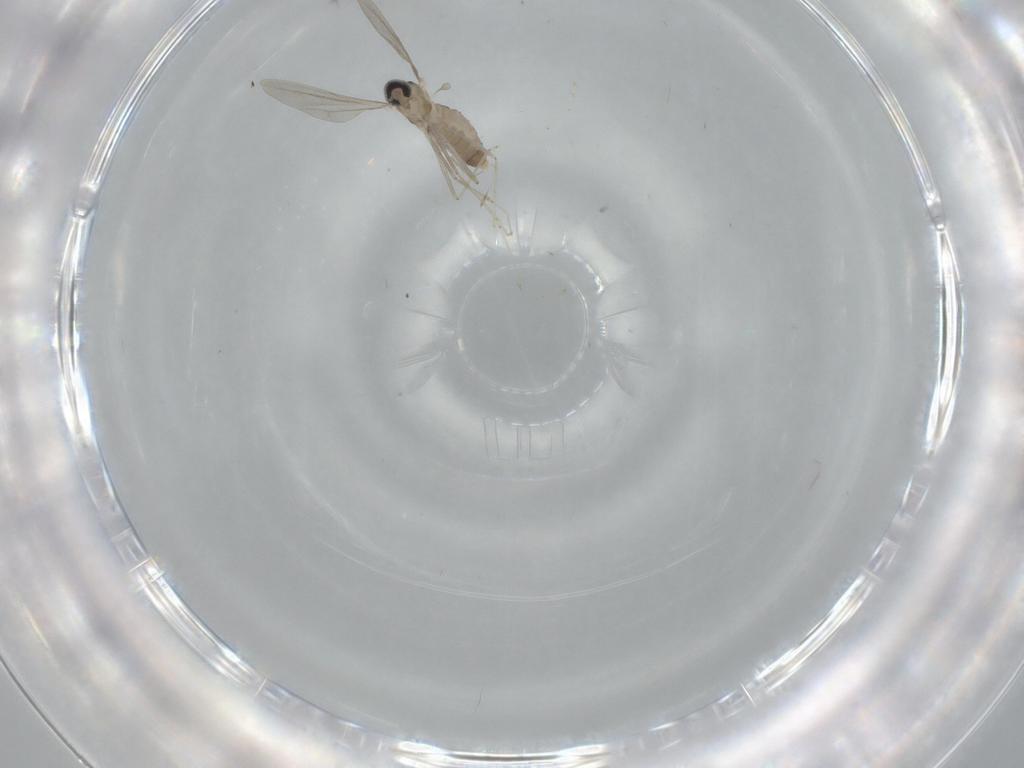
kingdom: Animalia
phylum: Arthropoda
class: Insecta
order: Diptera
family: Cecidomyiidae
